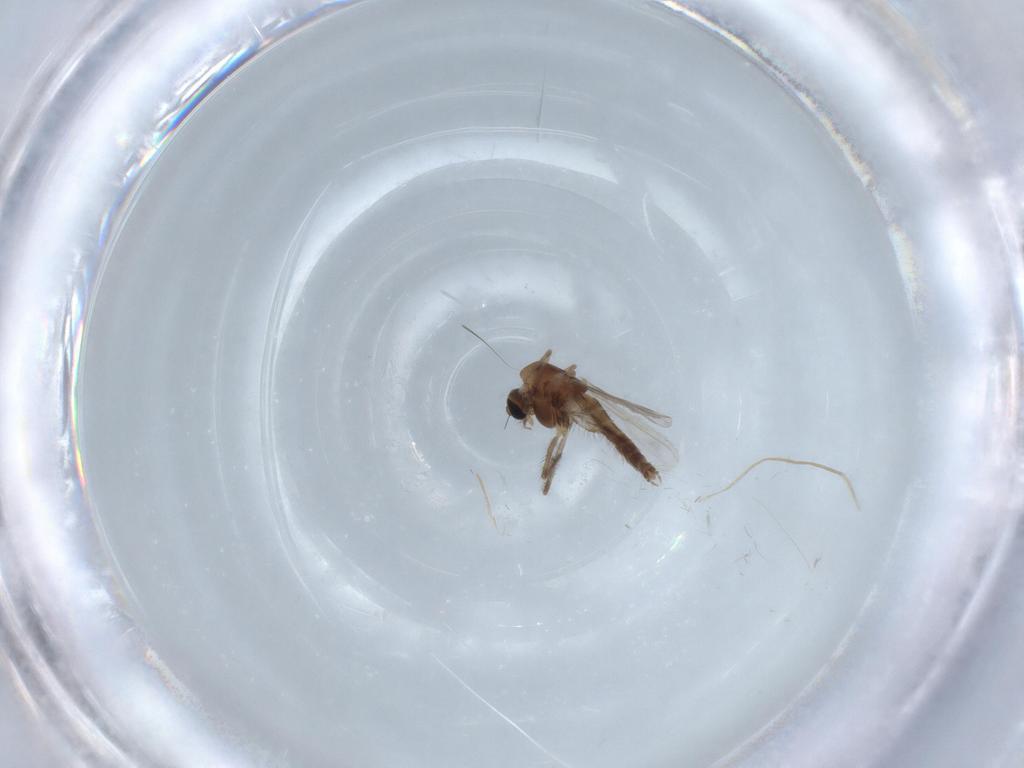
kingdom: Animalia
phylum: Arthropoda
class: Insecta
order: Diptera
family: Chironomidae
